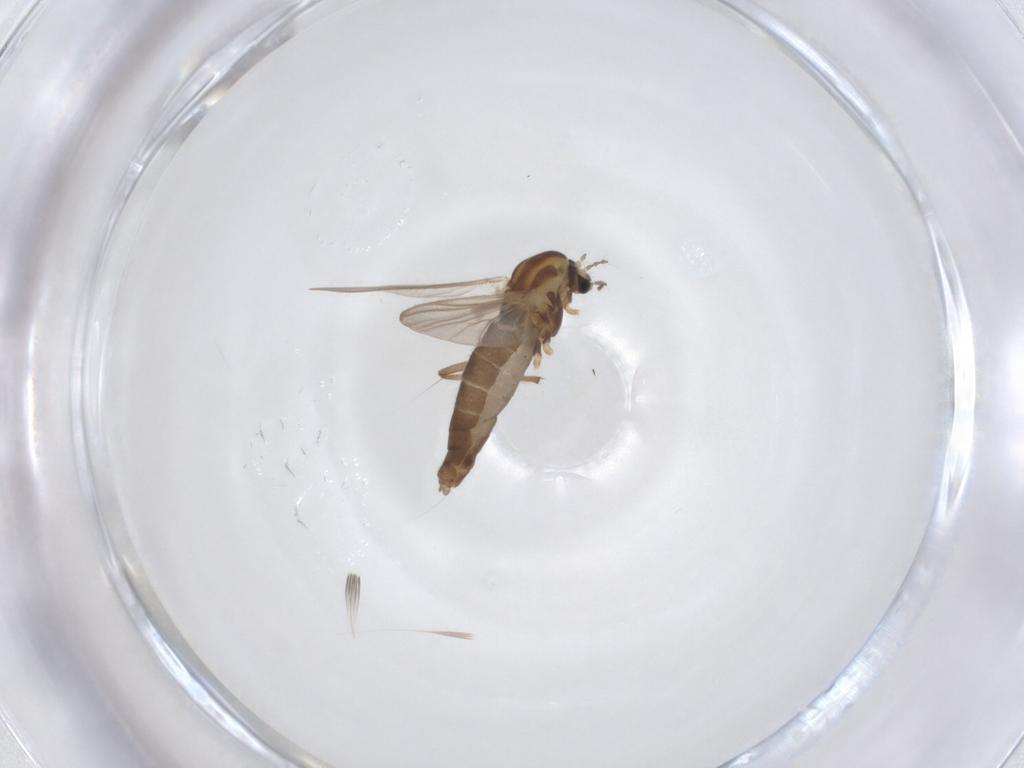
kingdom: Animalia
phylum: Arthropoda
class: Insecta
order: Diptera
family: Chironomidae
